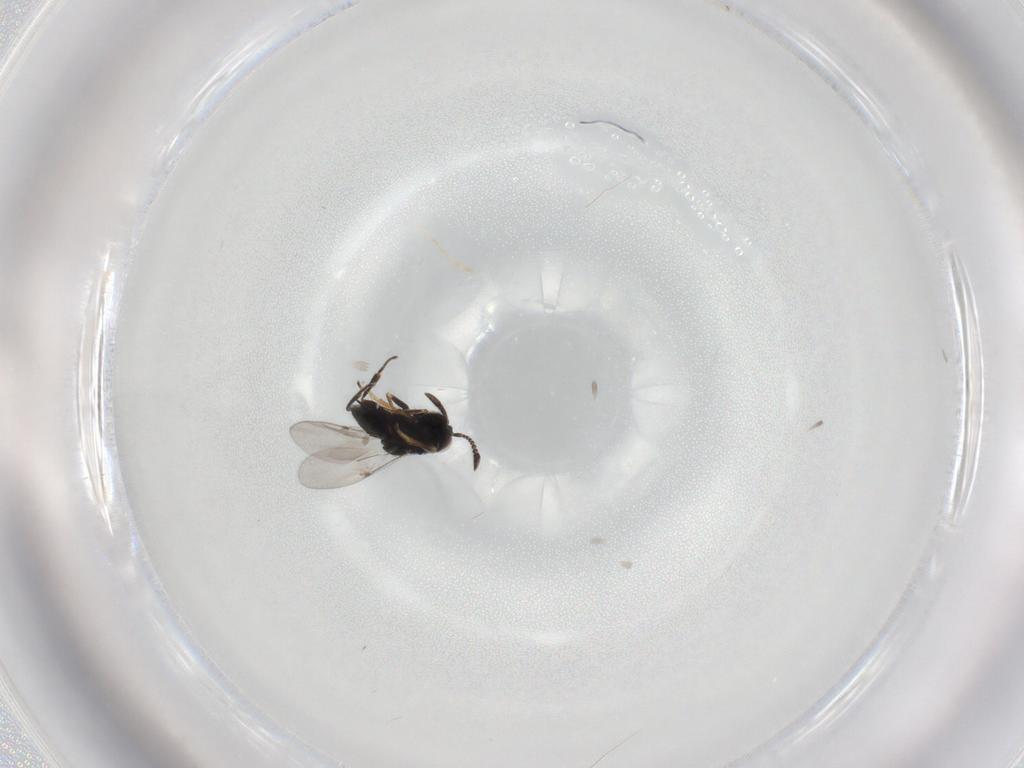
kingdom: Animalia
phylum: Arthropoda
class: Insecta
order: Hymenoptera
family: Encyrtidae
